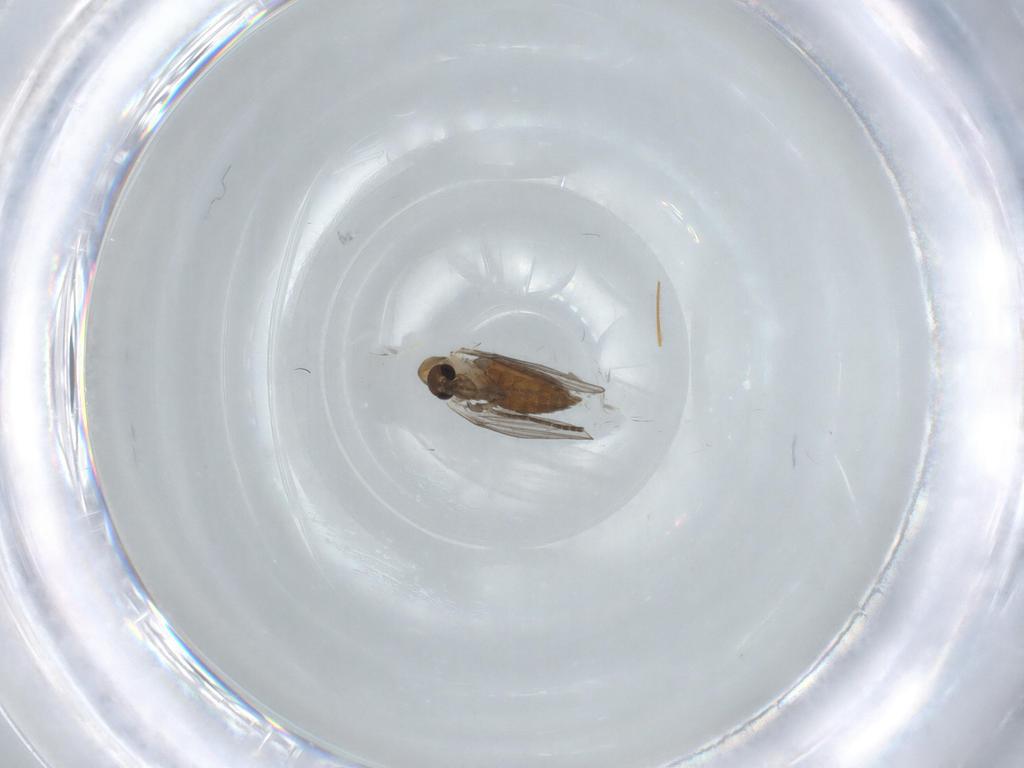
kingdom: Animalia
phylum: Arthropoda
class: Insecta
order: Diptera
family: Psychodidae
